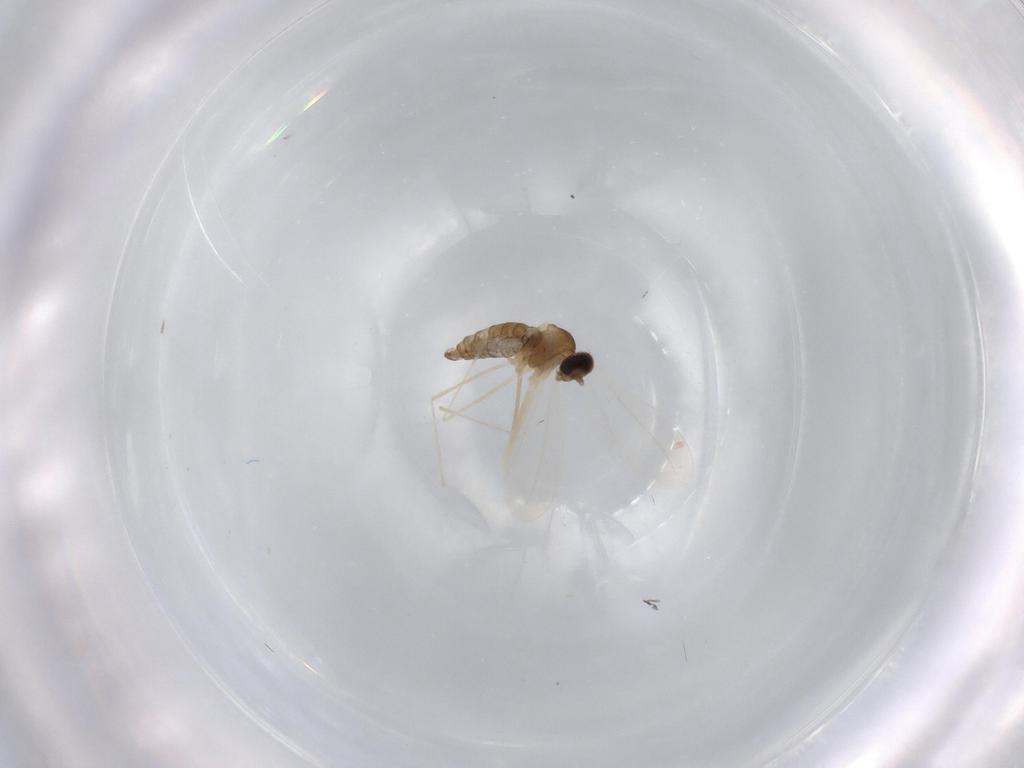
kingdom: Animalia
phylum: Arthropoda
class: Insecta
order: Diptera
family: Cecidomyiidae
